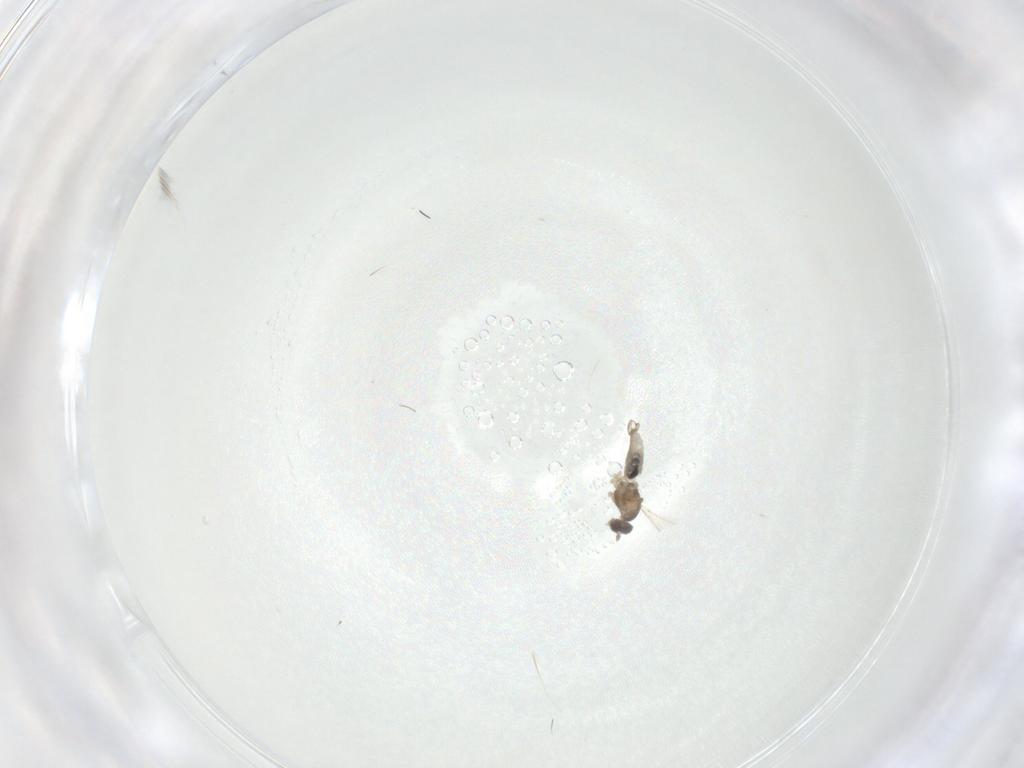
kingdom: Animalia
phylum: Arthropoda
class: Insecta
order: Diptera
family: Cecidomyiidae
